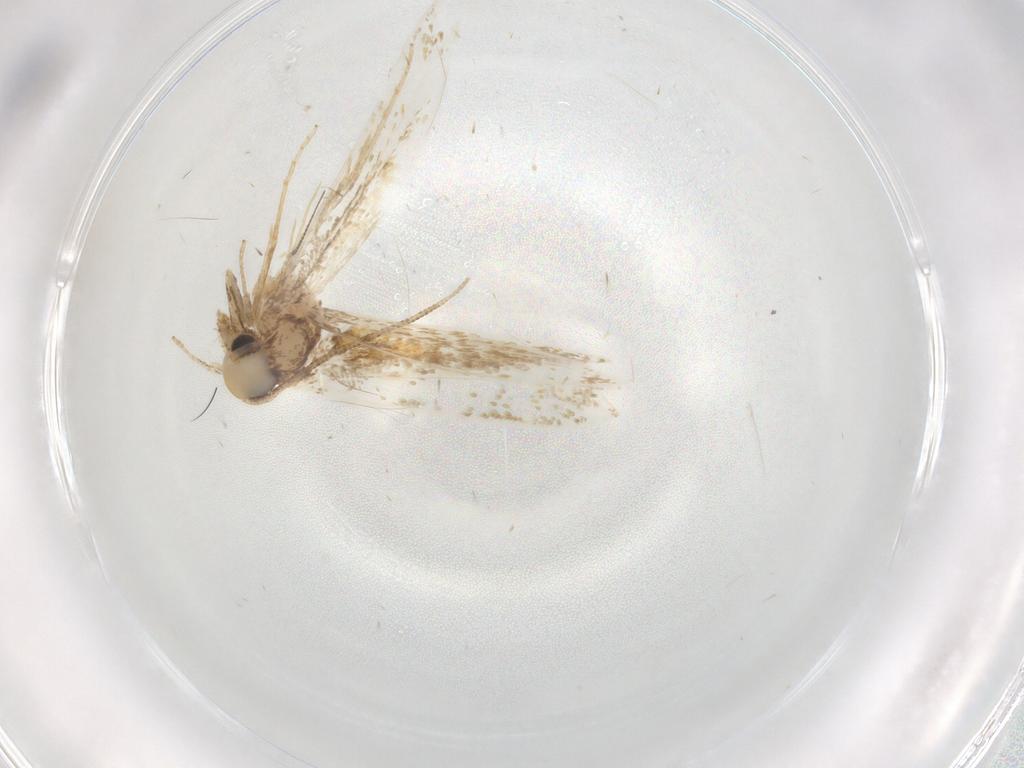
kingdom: Animalia
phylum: Arthropoda
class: Insecta
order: Lepidoptera
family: Tineidae
